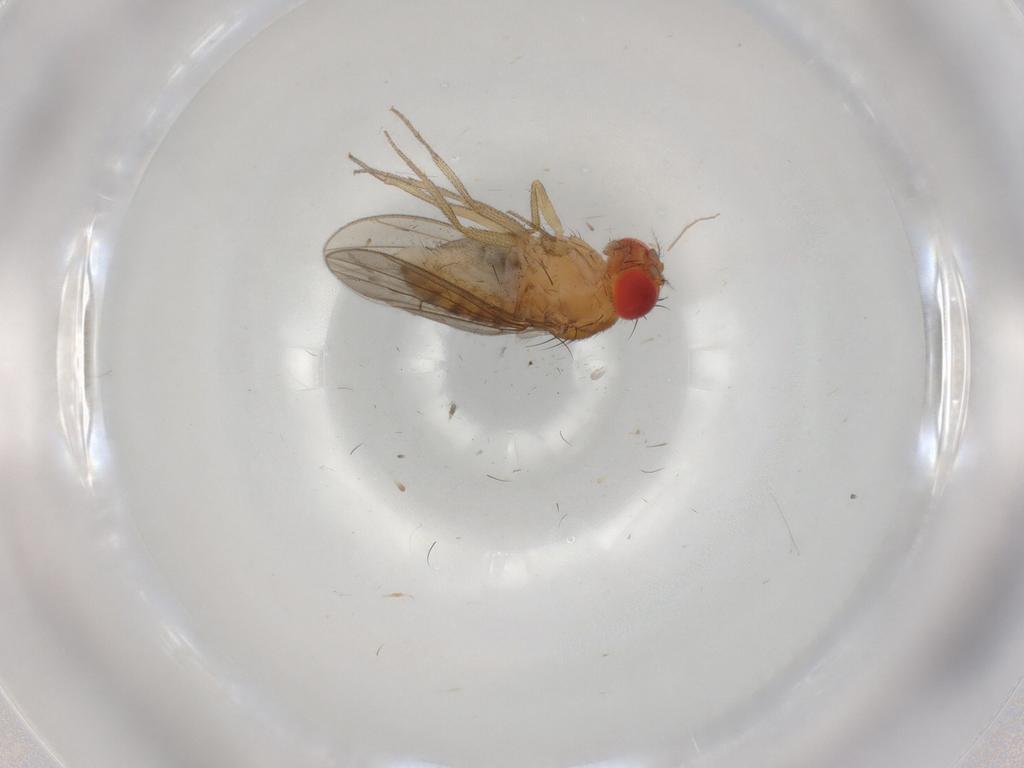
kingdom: Animalia
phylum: Arthropoda
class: Insecta
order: Diptera
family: Drosophilidae
